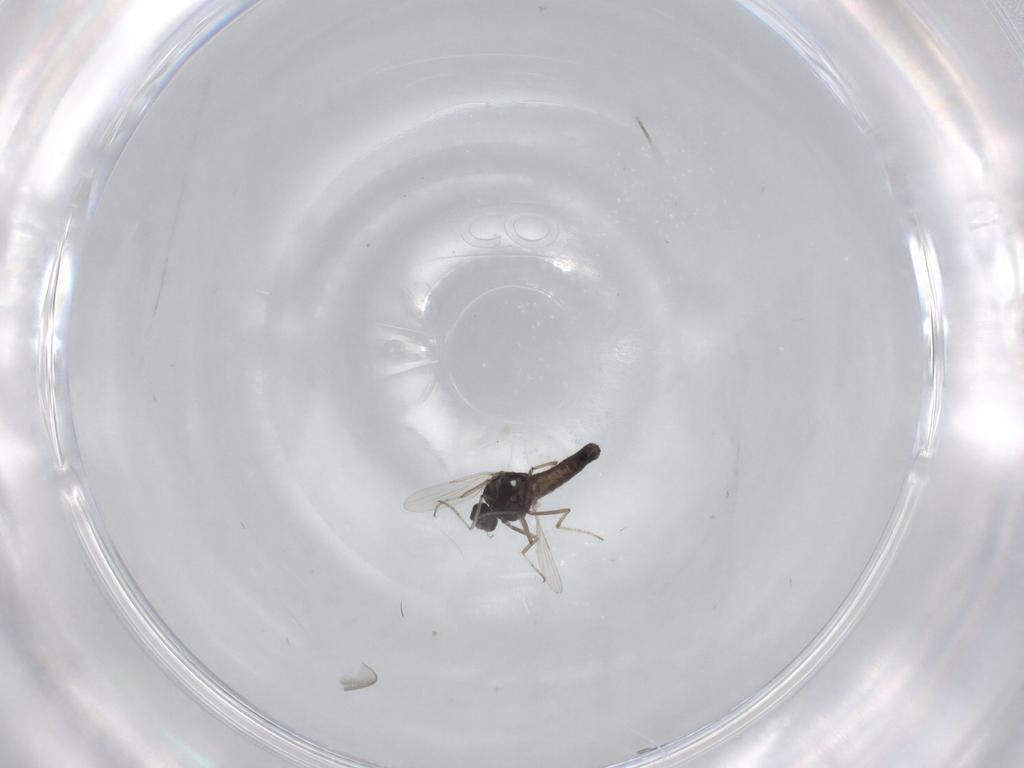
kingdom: Animalia
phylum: Arthropoda
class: Insecta
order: Diptera
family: Ceratopogonidae
